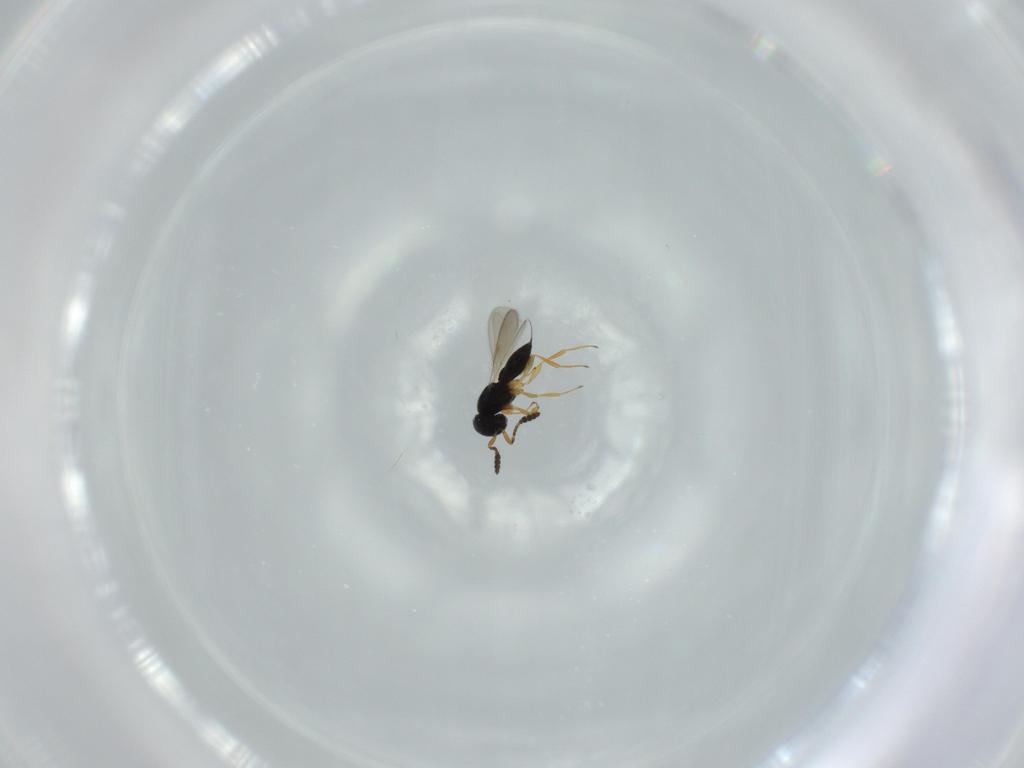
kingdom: Animalia
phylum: Arthropoda
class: Insecta
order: Hymenoptera
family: Scelionidae
